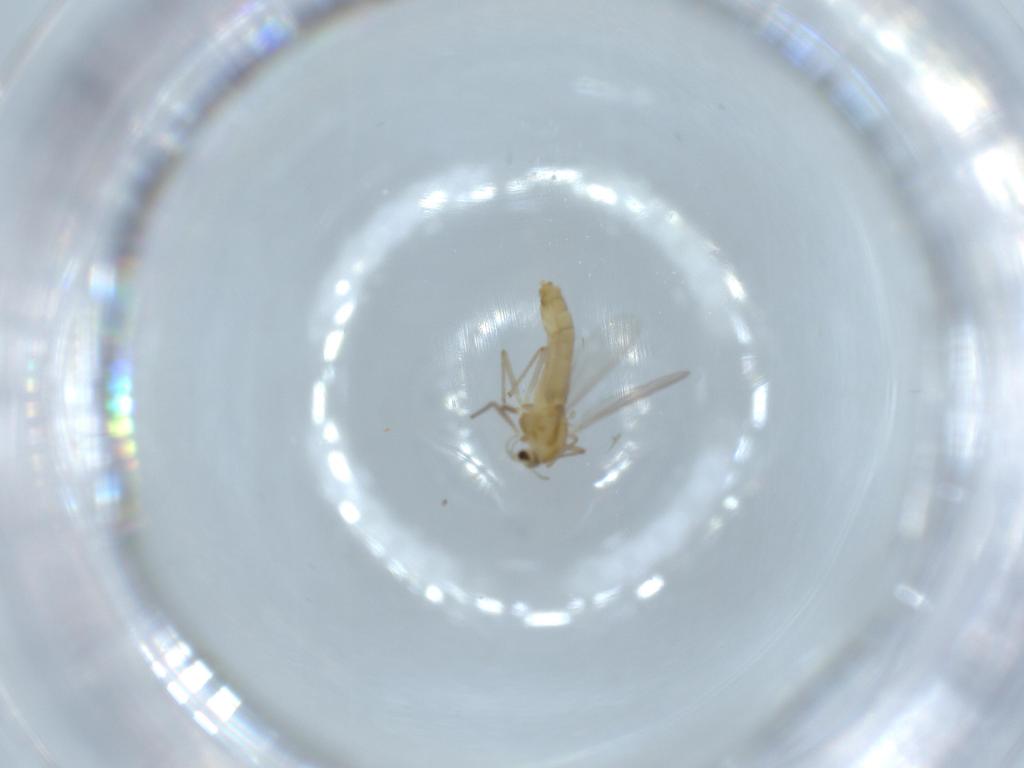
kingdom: Animalia
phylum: Arthropoda
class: Insecta
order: Diptera
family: Chironomidae
